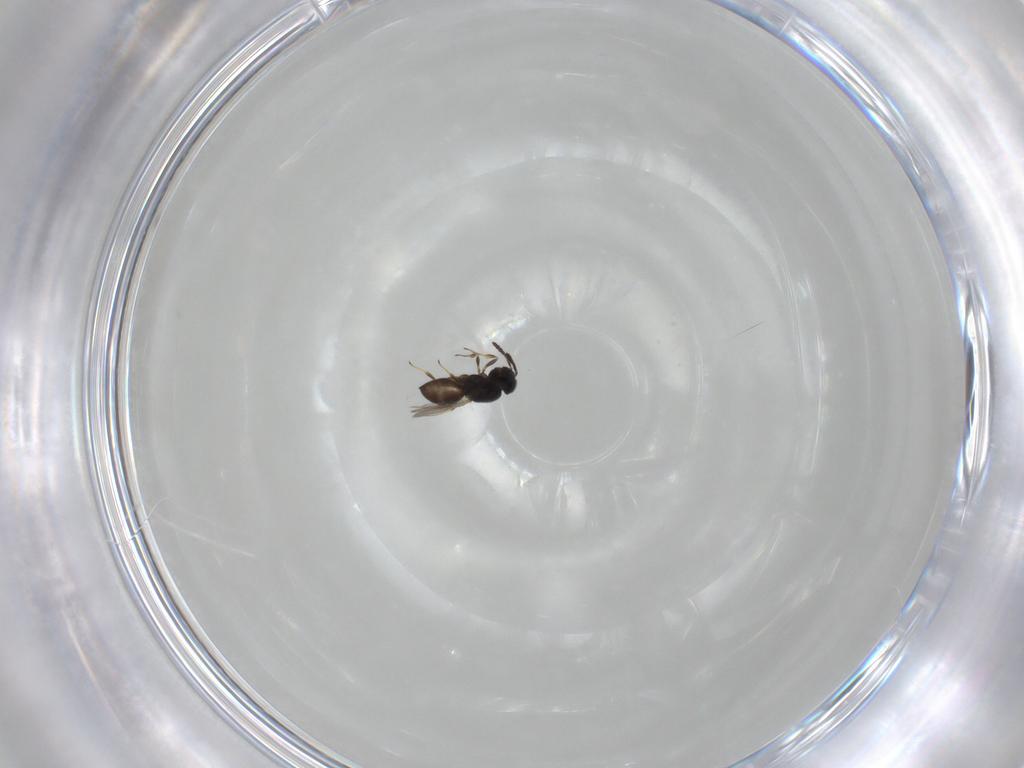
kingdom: Animalia
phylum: Arthropoda
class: Insecta
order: Hymenoptera
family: Scelionidae
